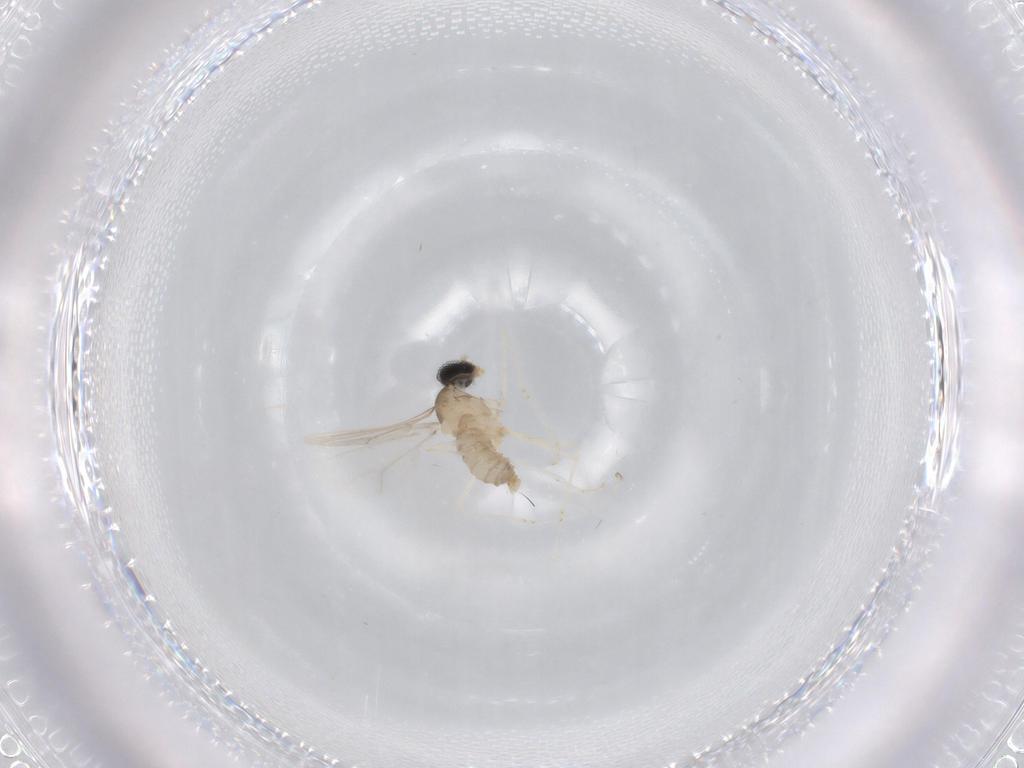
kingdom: Animalia
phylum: Arthropoda
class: Insecta
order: Diptera
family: Cecidomyiidae
